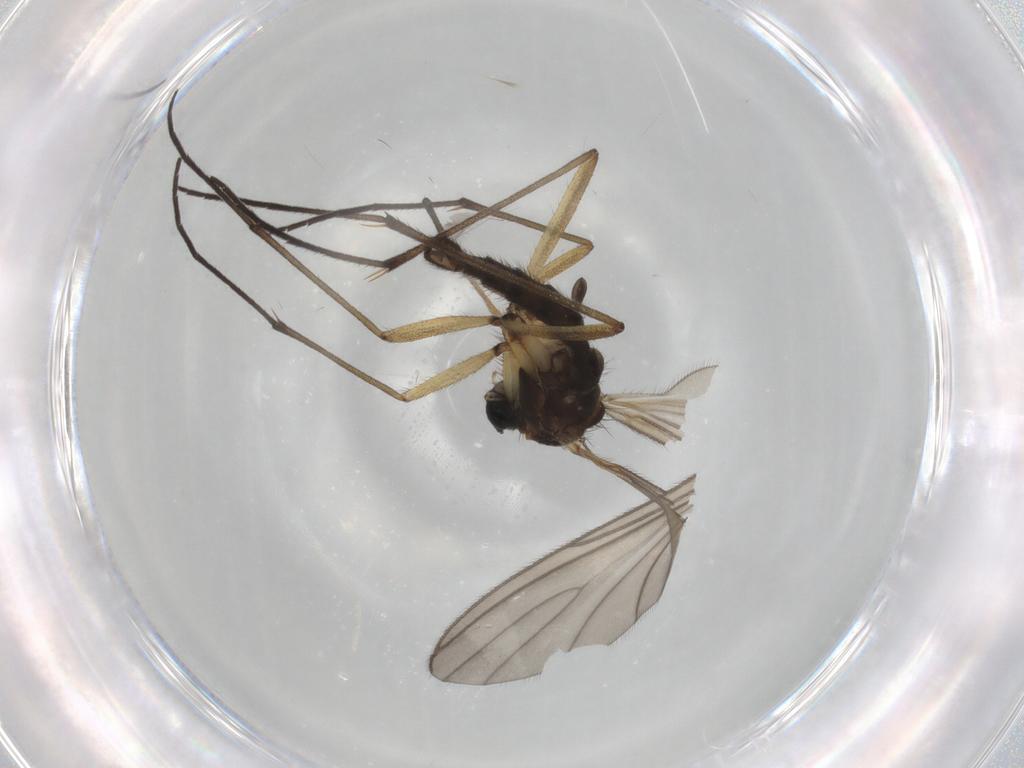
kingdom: Animalia
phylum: Arthropoda
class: Insecta
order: Diptera
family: Sciaridae
